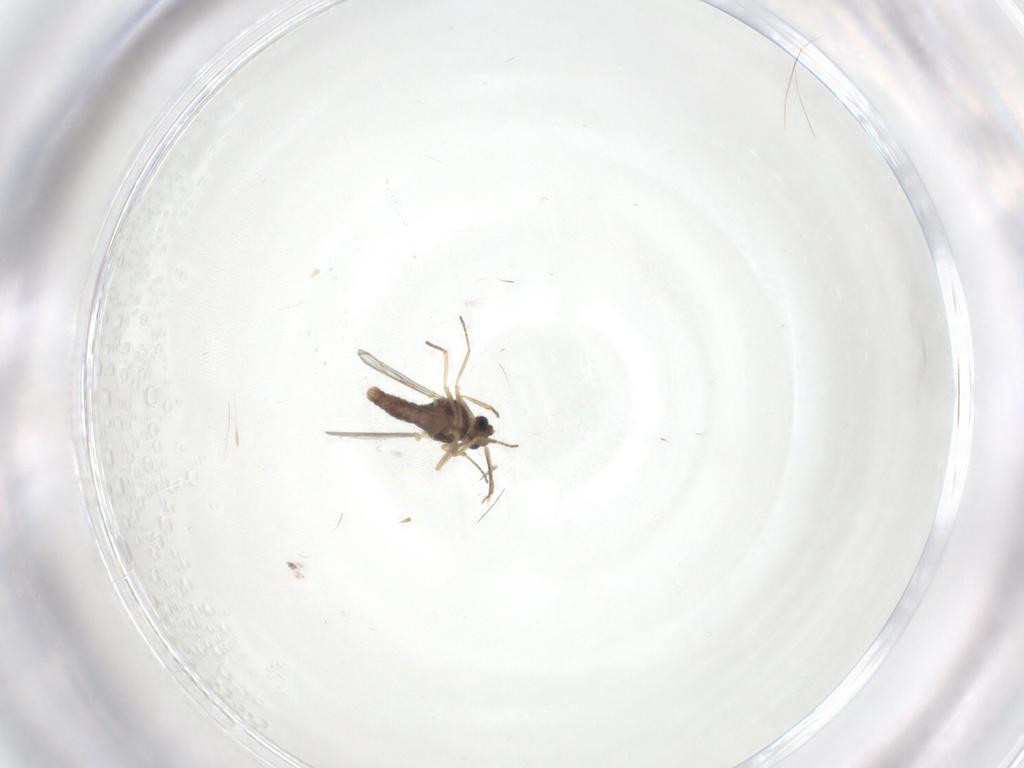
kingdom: Animalia
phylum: Arthropoda
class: Insecta
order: Diptera
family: Ceratopogonidae
